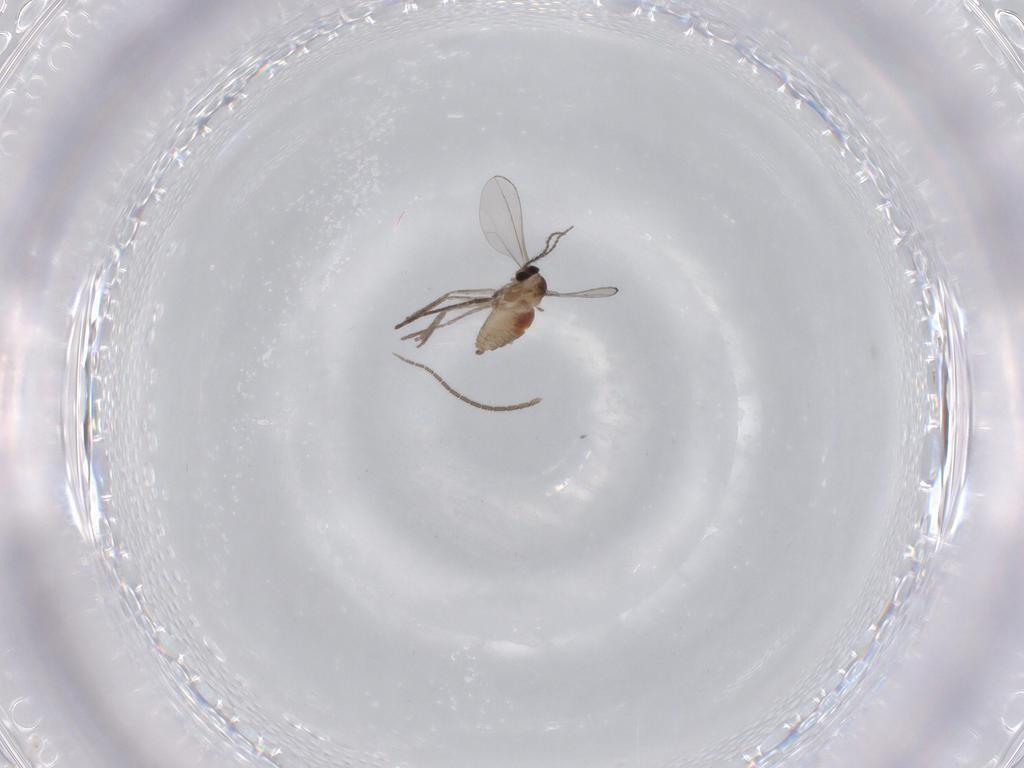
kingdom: Animalia
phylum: Arthropoda
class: Insecta
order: Diptera
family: Cecidomyiidae
